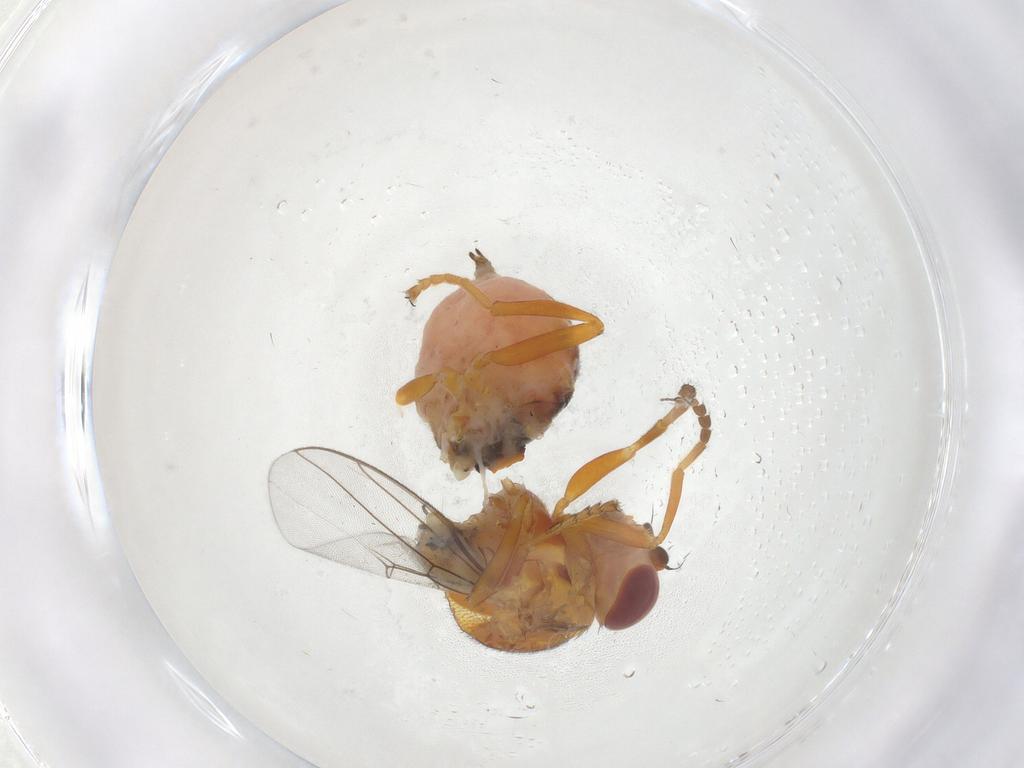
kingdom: Animalia
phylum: Arthropoda
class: Insecta
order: Diptera
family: Chloropidae
